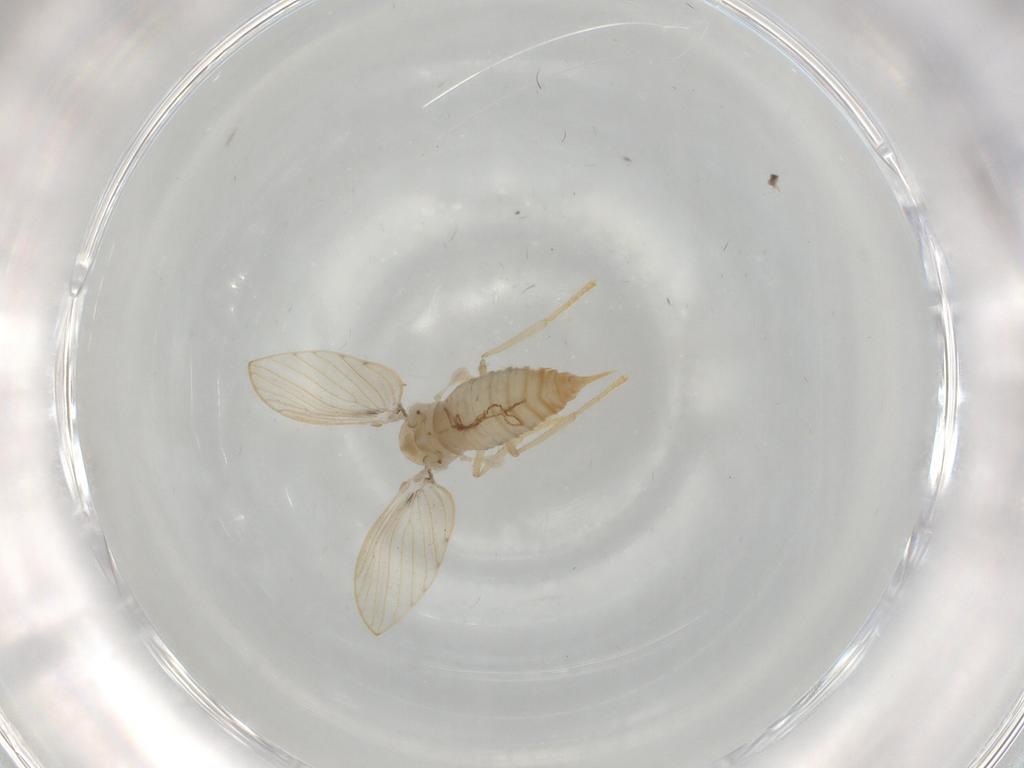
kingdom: Animalia
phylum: Arthropoda
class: Insecta
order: Diptera
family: Psychodidae
